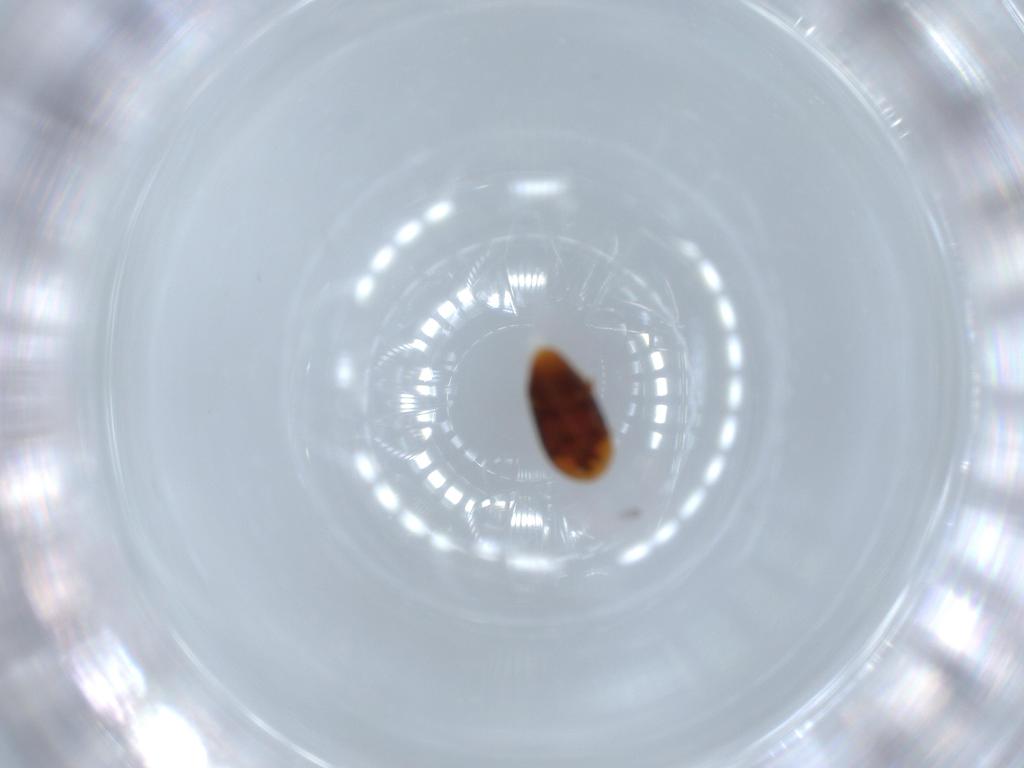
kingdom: Animalia
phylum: Arthropoda
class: Insecta
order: Coleoptera
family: Corylophidae
